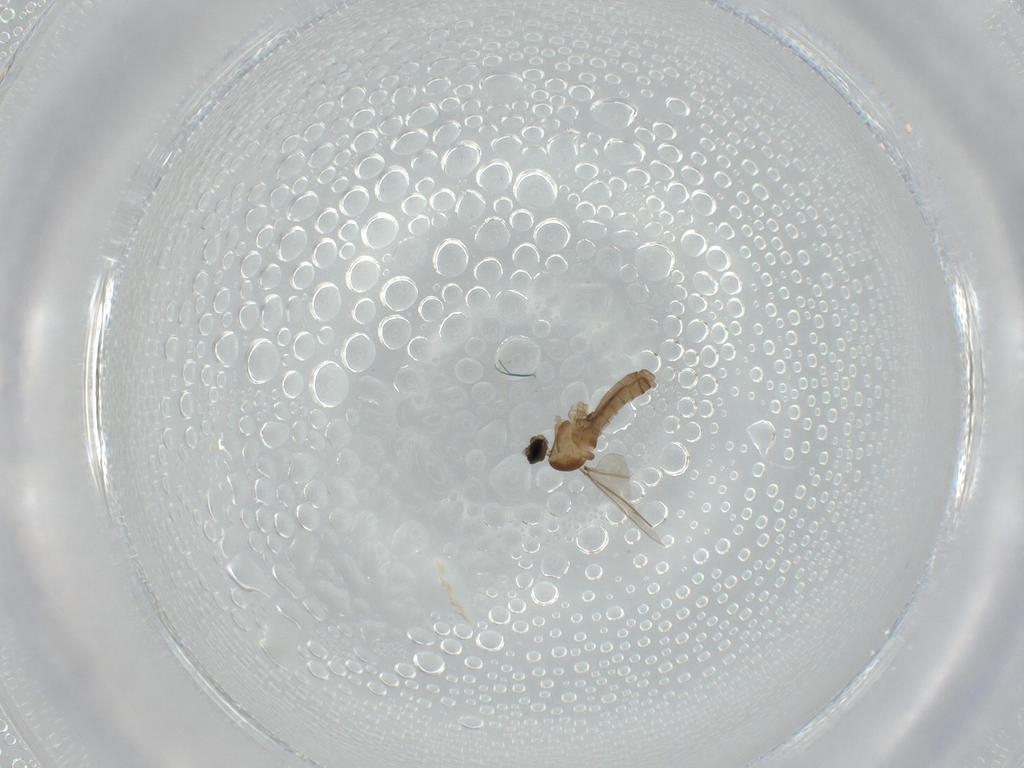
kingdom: Animalia
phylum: Arthropoda
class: Insecta
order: Diptera
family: Cecidomyiidae
